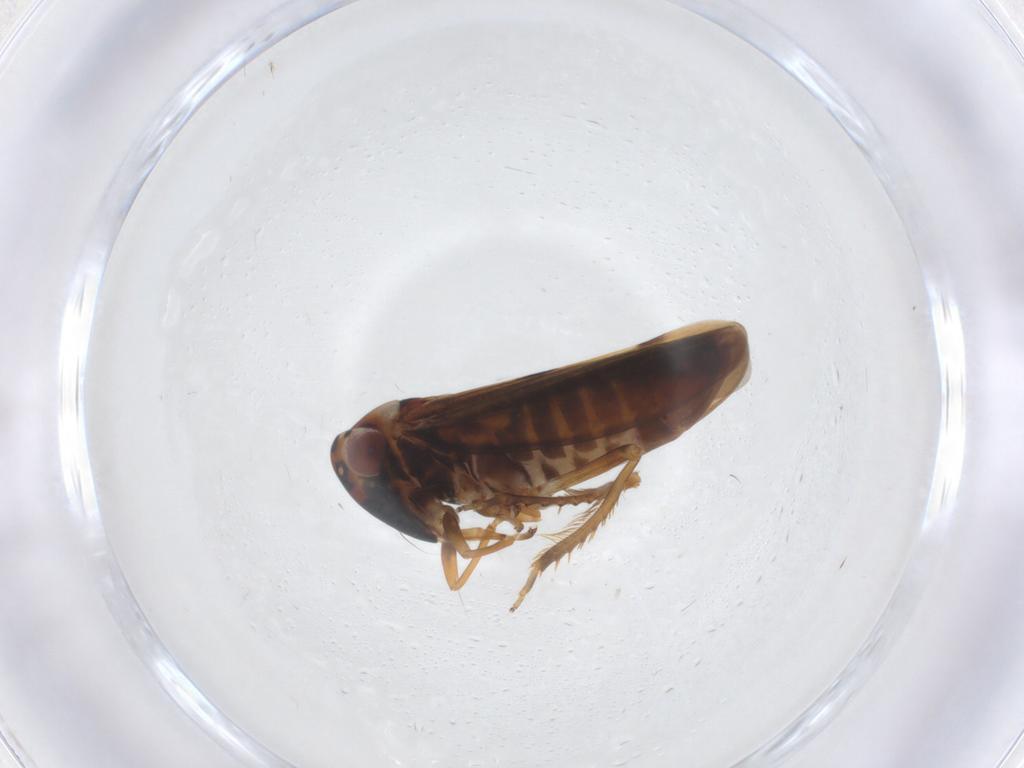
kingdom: Animalia
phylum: Arthropoda
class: Insecta
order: Hemiptera
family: Cicadellidae
